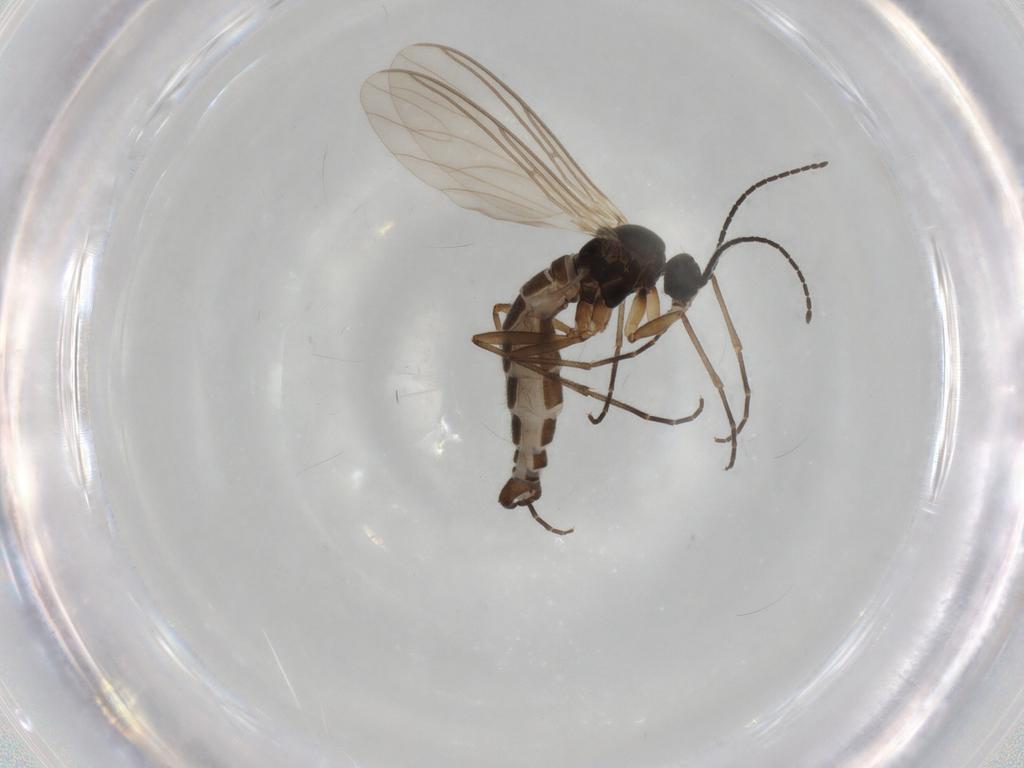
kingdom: Animalia
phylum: Arthropoda
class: Insecta
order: Diptera
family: Sciaridae
